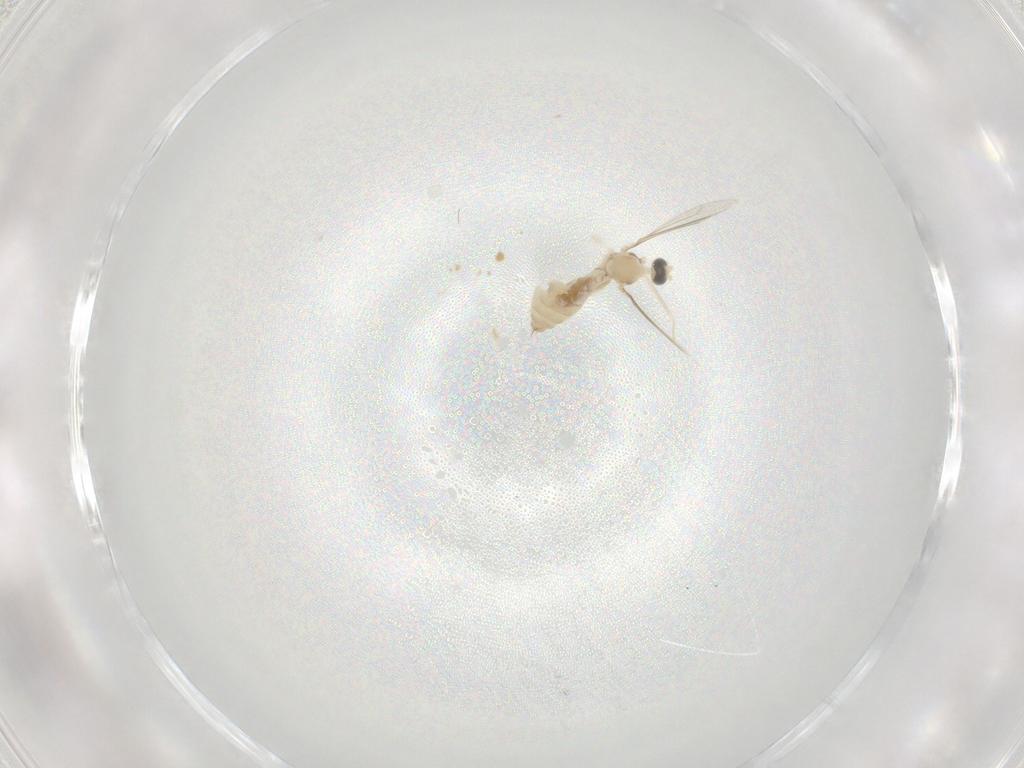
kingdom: Animalia
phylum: Arthropoda
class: Insecta
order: Diptera
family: Cecidomyiidae
